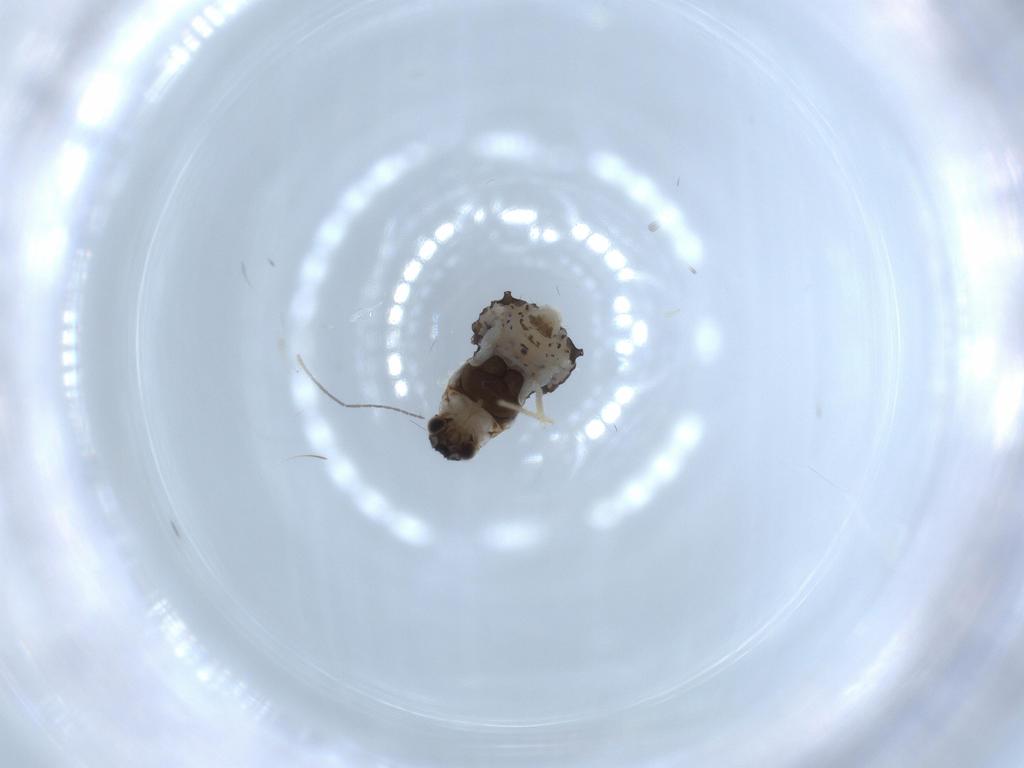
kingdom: Animalia
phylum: Arthropoda
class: Insecta
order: Hemiptera
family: Aphididae
